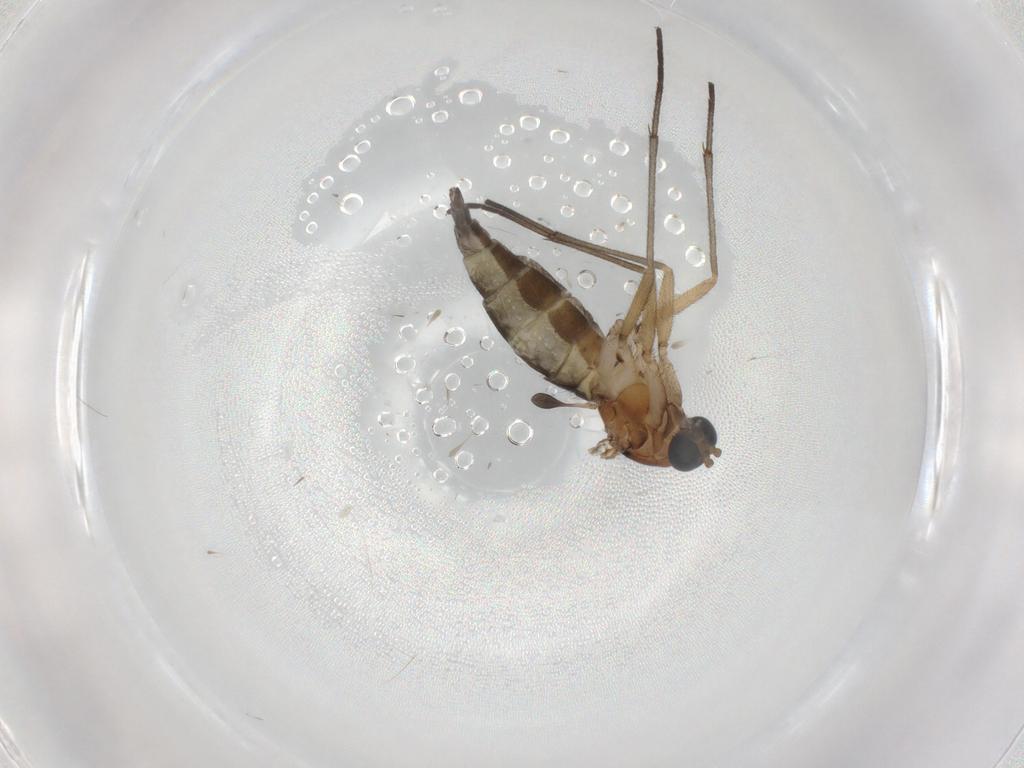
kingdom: Animalia
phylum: Arthropoda
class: Insecta
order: Diptera
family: Sciaridae
